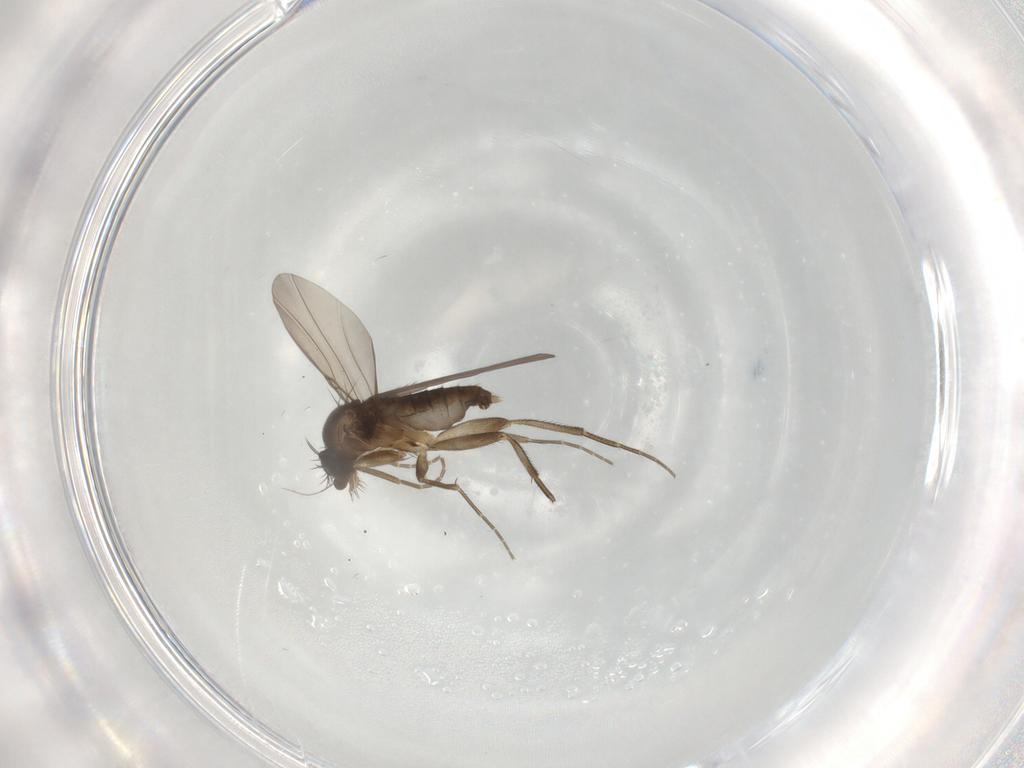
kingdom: Animalia
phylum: Arthropoda
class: Insecta
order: Diptera
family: Phoridae
